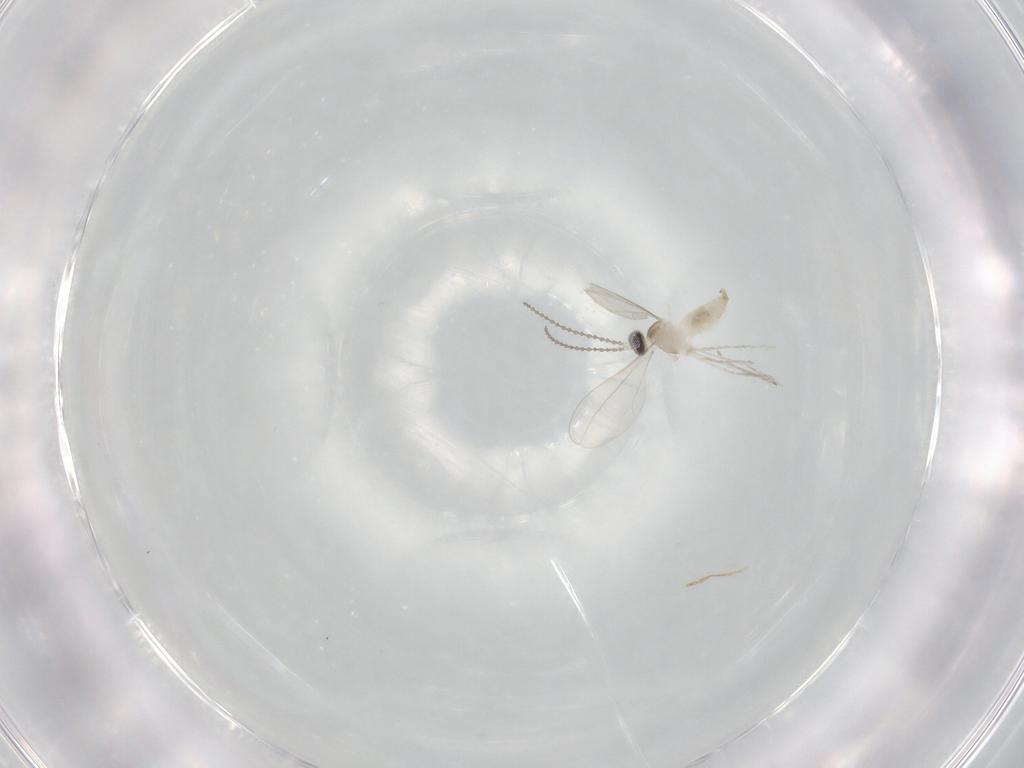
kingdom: Animalia
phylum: Arthropoda
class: Insecta
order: Diptera
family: Cecidomyiidae
